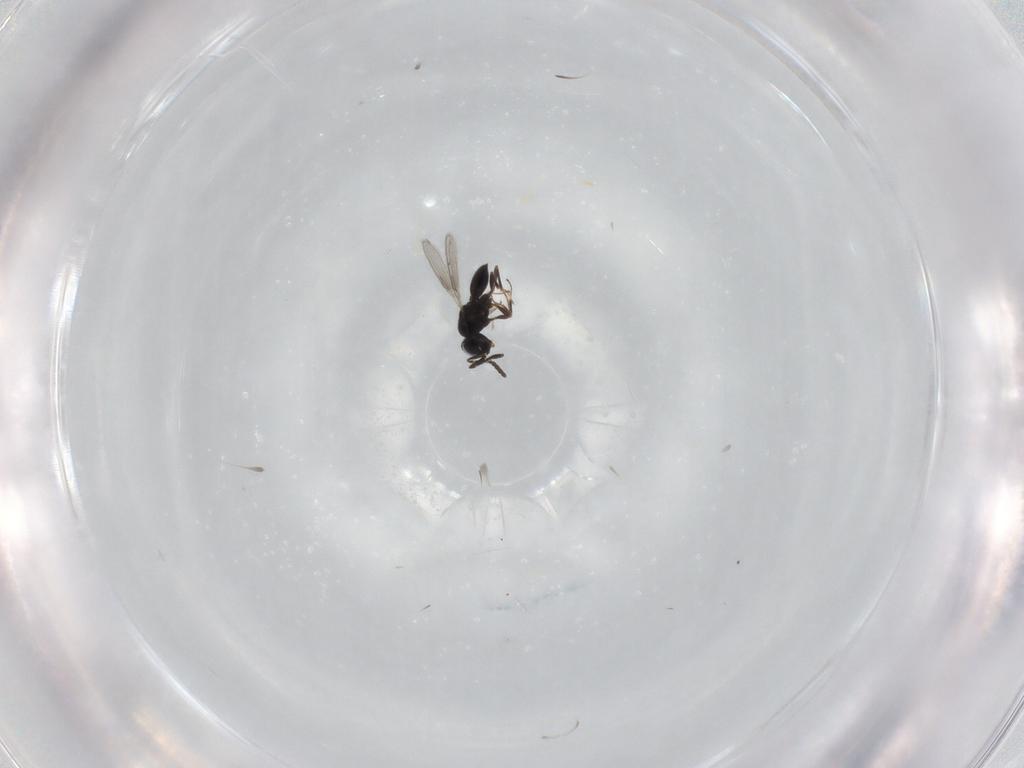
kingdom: Animalia
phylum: Arthropoda
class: Insecta
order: Hymenoptera
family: Scelionidae
